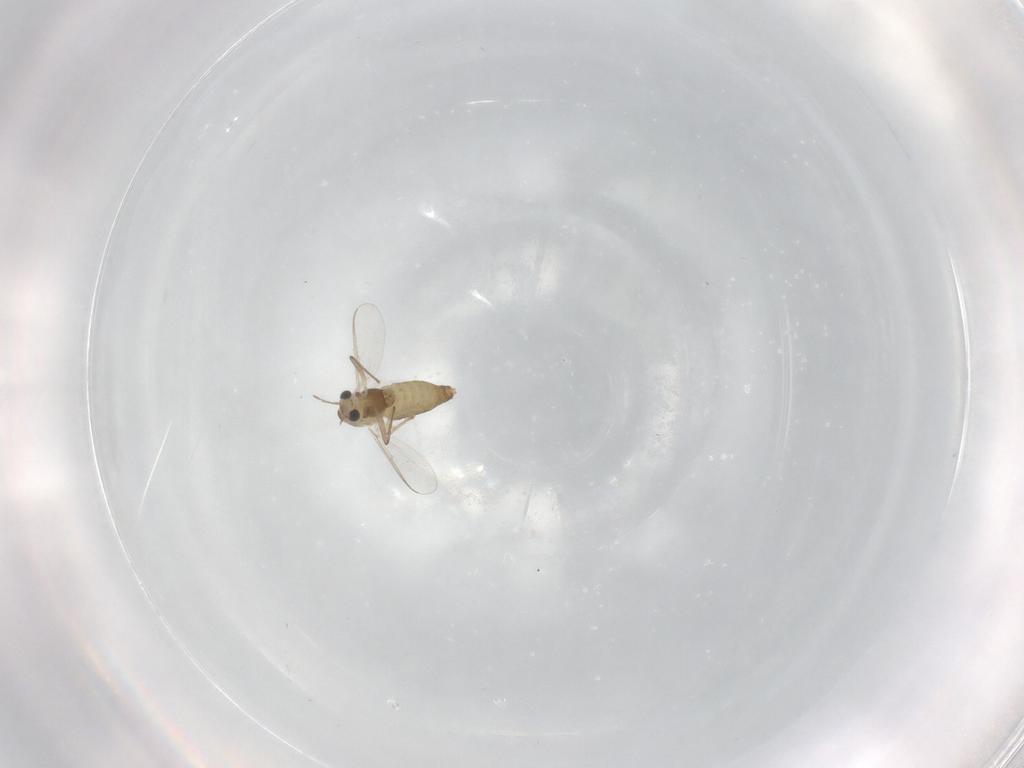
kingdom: Animalia
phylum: Arthropoda
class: Insecta
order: Diptera
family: Chironomidae
